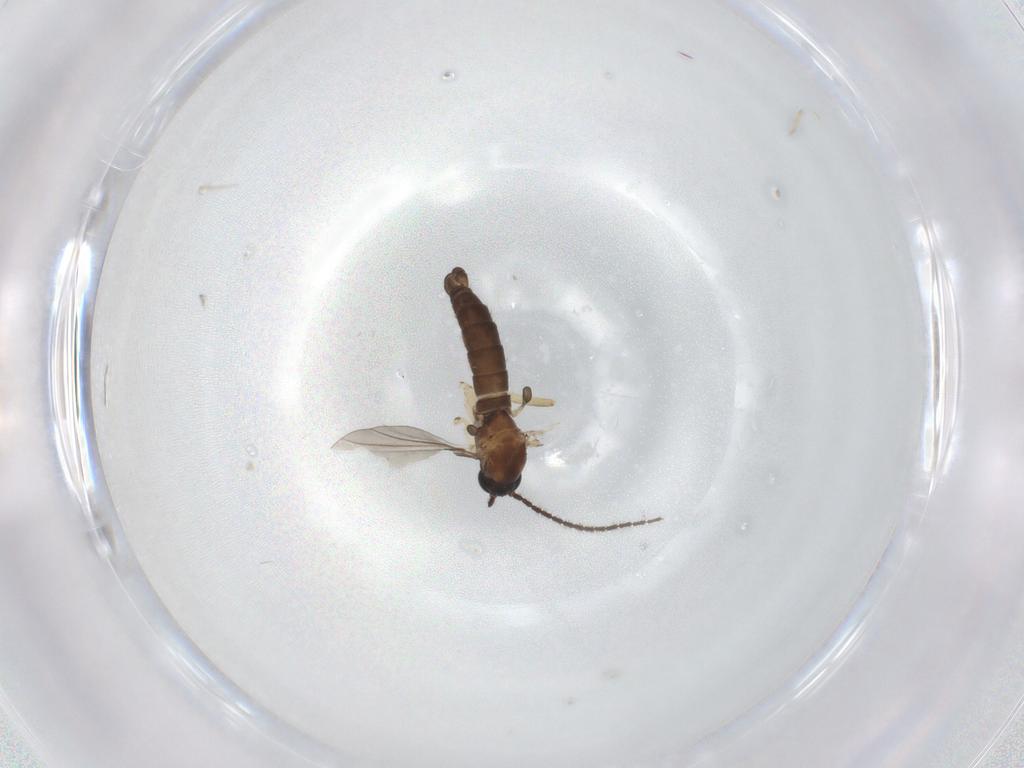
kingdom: Animalia
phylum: Arthropoda
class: Insecta
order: Diptera
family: Sciaridae
